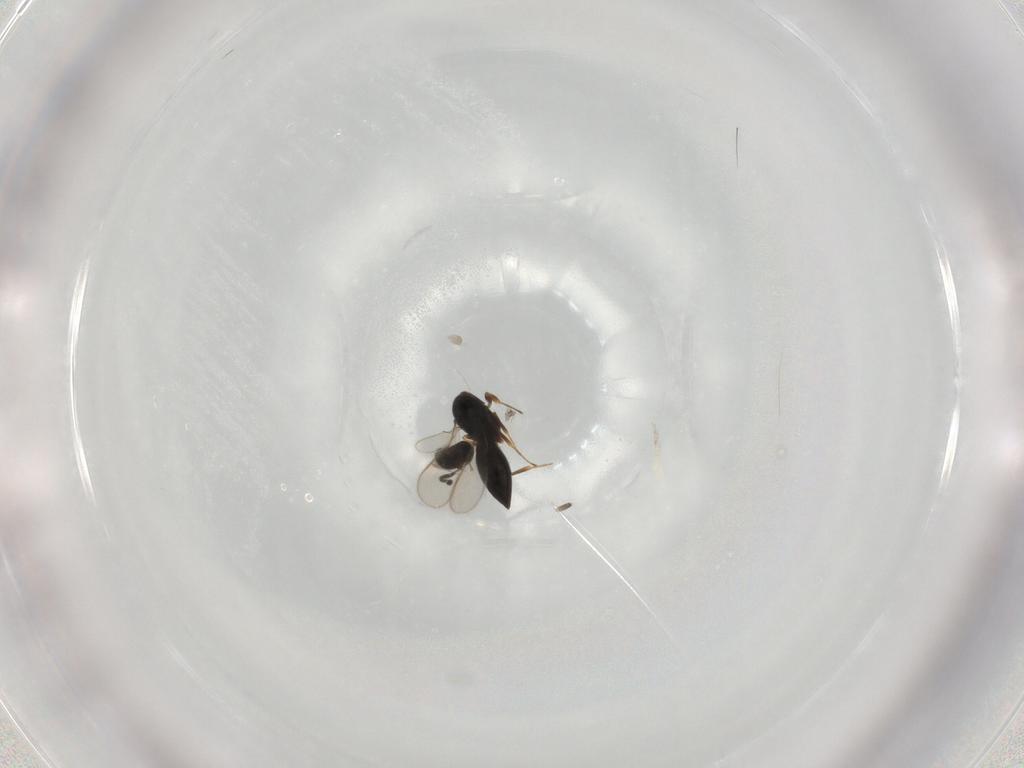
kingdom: Animalia
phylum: Arthropoda
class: Insecta
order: Hymenoptera
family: Scelionidae
